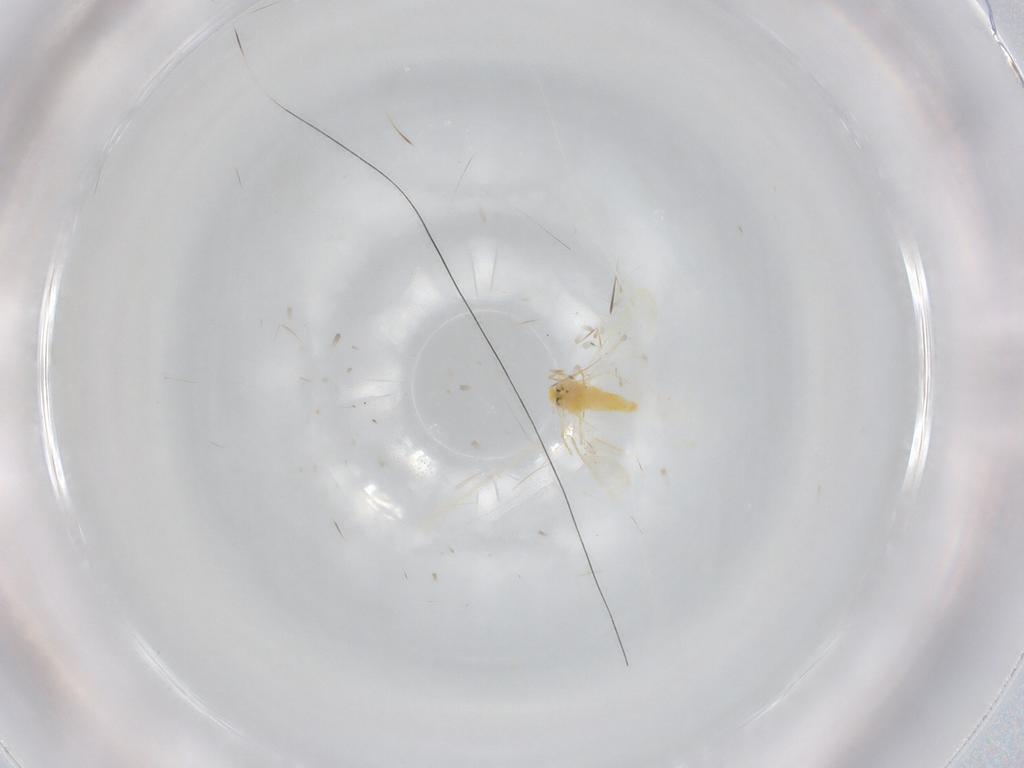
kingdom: Animalia
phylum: Arthropoda
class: Insecta
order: Hemiptera
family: Aleyrodidae
